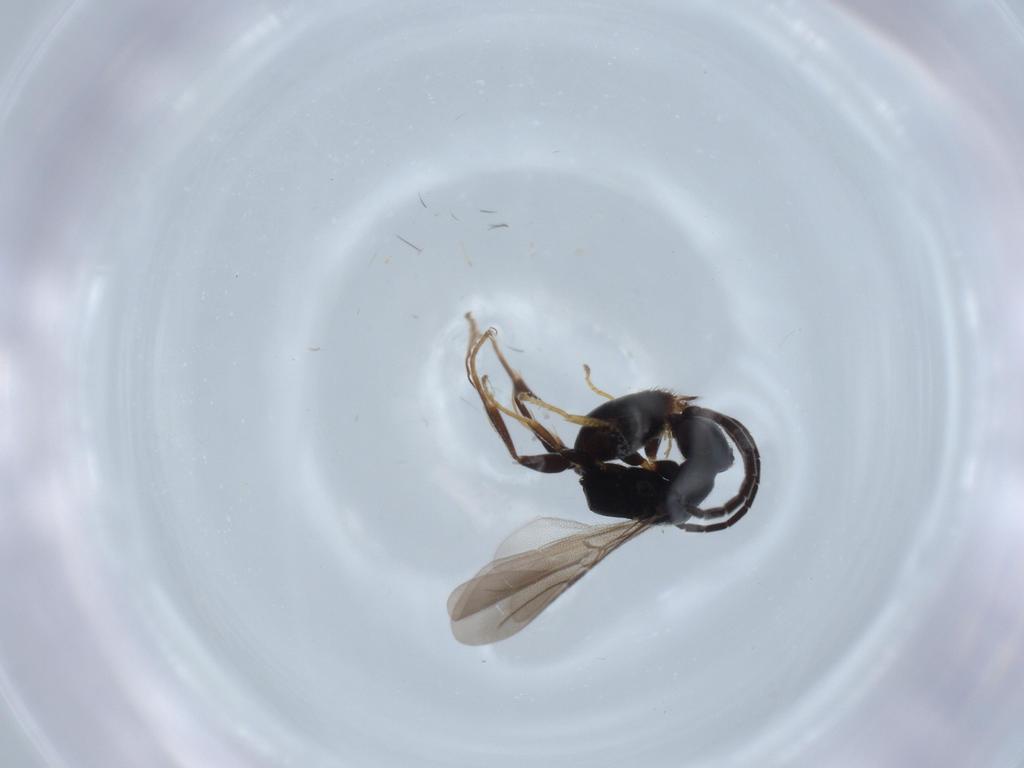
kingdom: Animalia
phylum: Arthropoda
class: Insecta
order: Hymenoptera
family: Bethylidae
